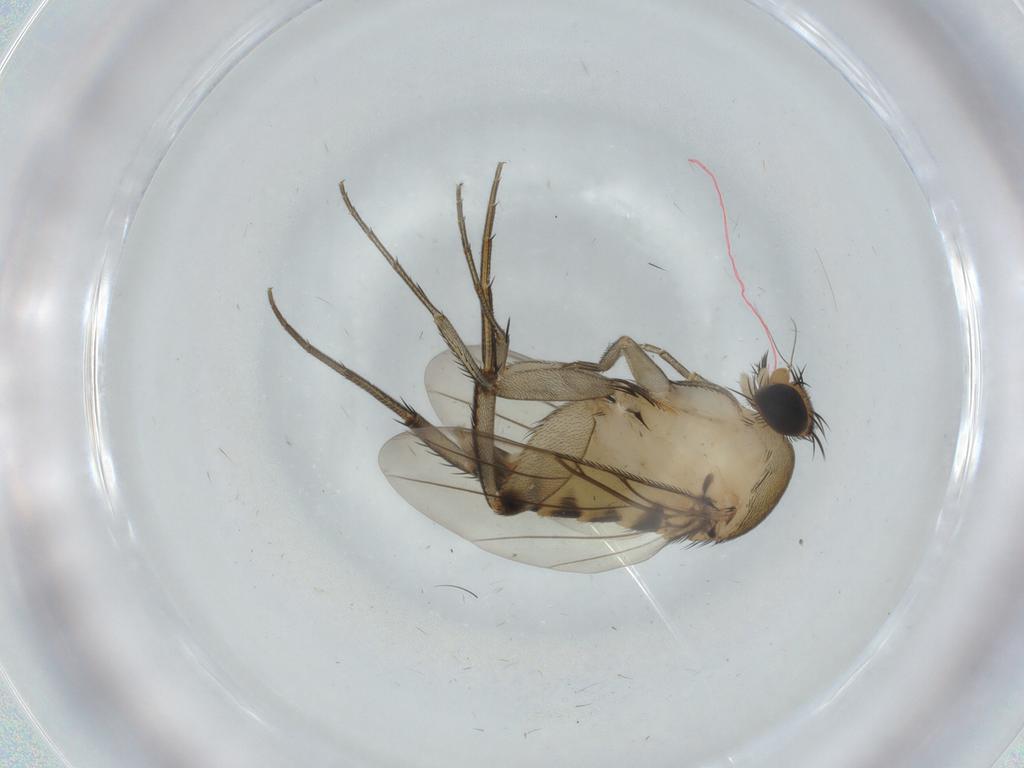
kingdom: Animalia
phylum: Arthropoda
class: Insecta
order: Diptera
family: Phoridae
